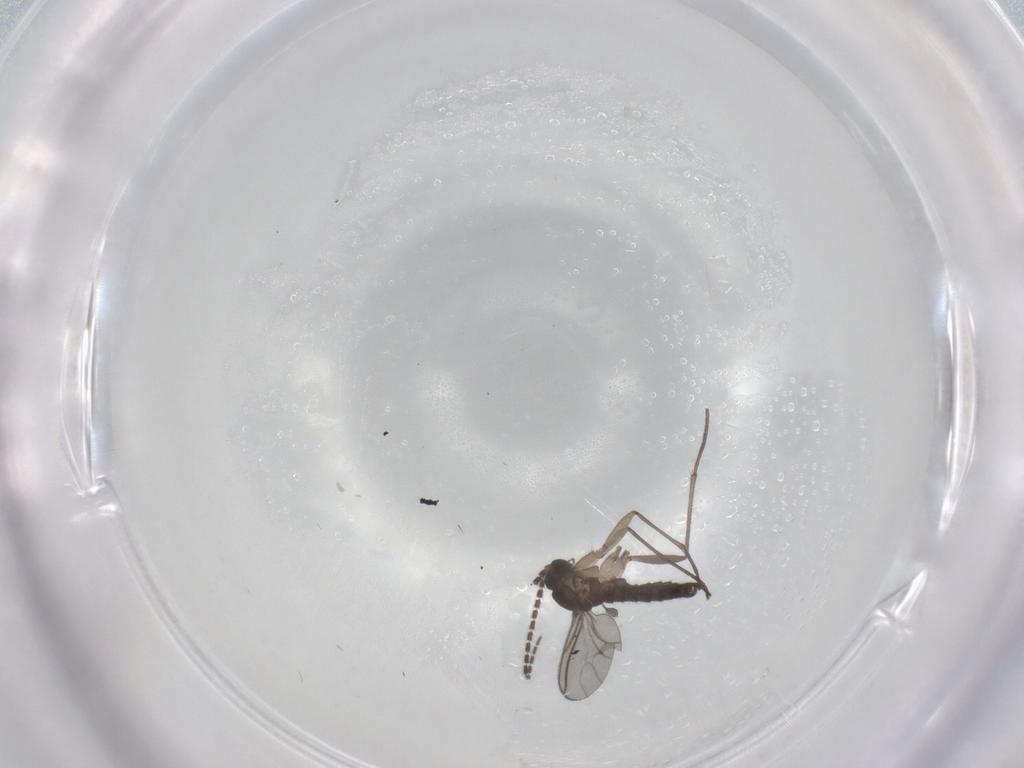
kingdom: Animalia
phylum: Arthropoda
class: Insecta
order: Diptera
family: Sciaridae
